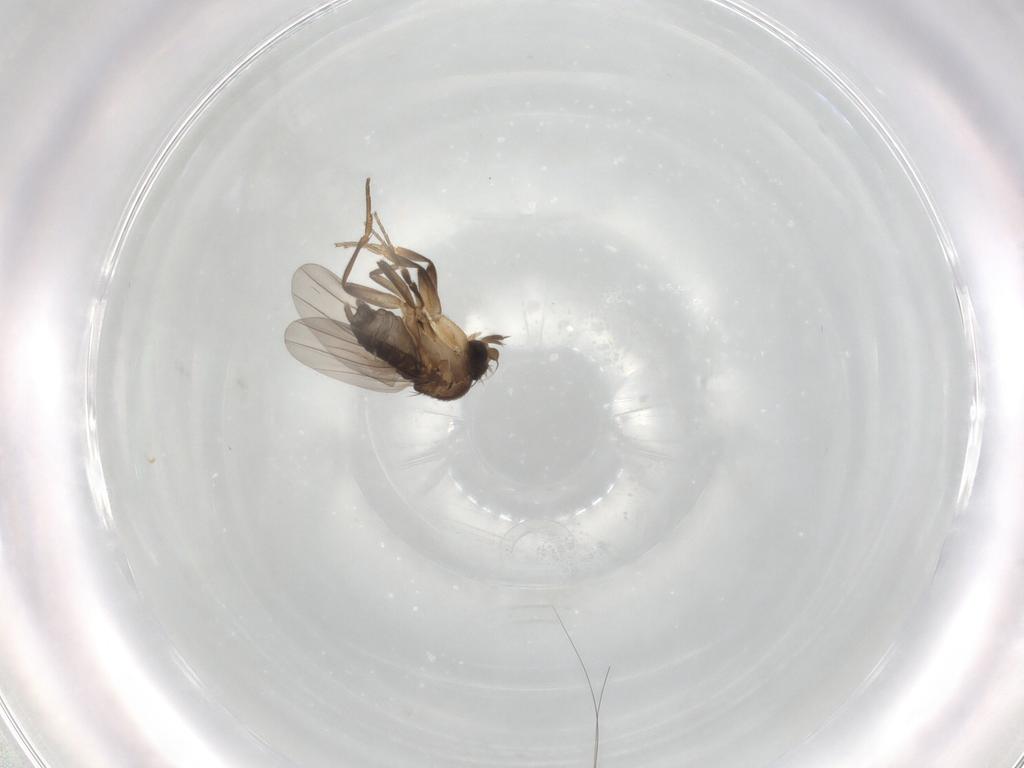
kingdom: Animalia
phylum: Arthropoda
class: Insecta
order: Diptera
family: Phoridae
